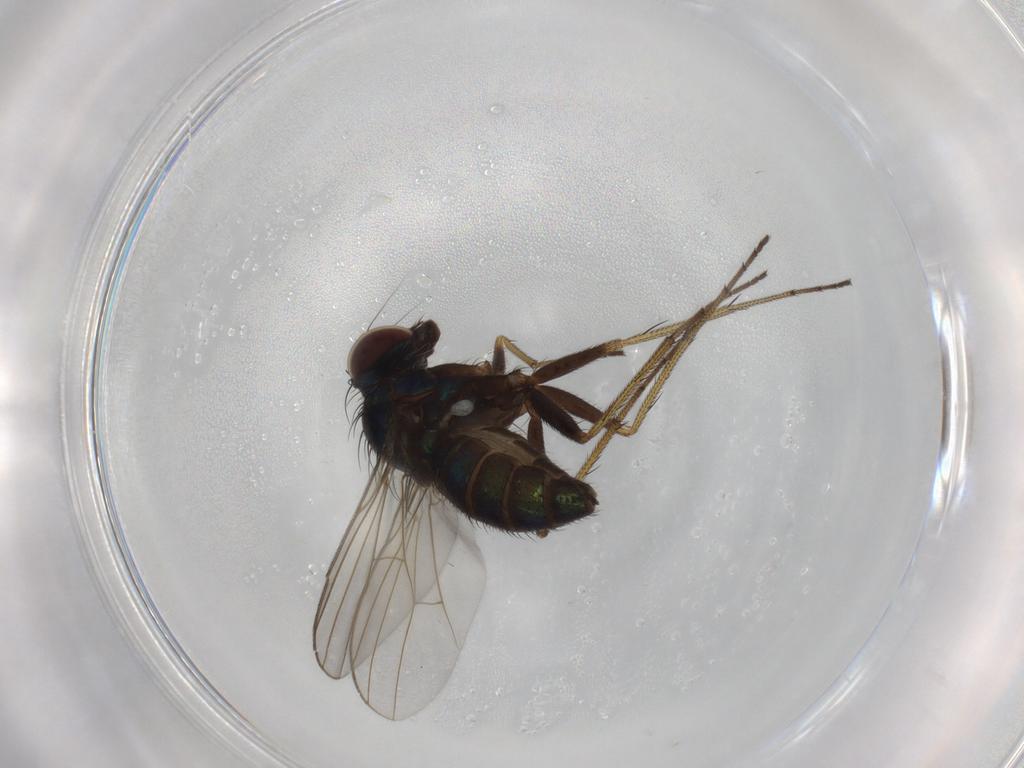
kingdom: Animalia
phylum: Arthropoda
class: Insecta
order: Diptera
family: Dolichopodidae
